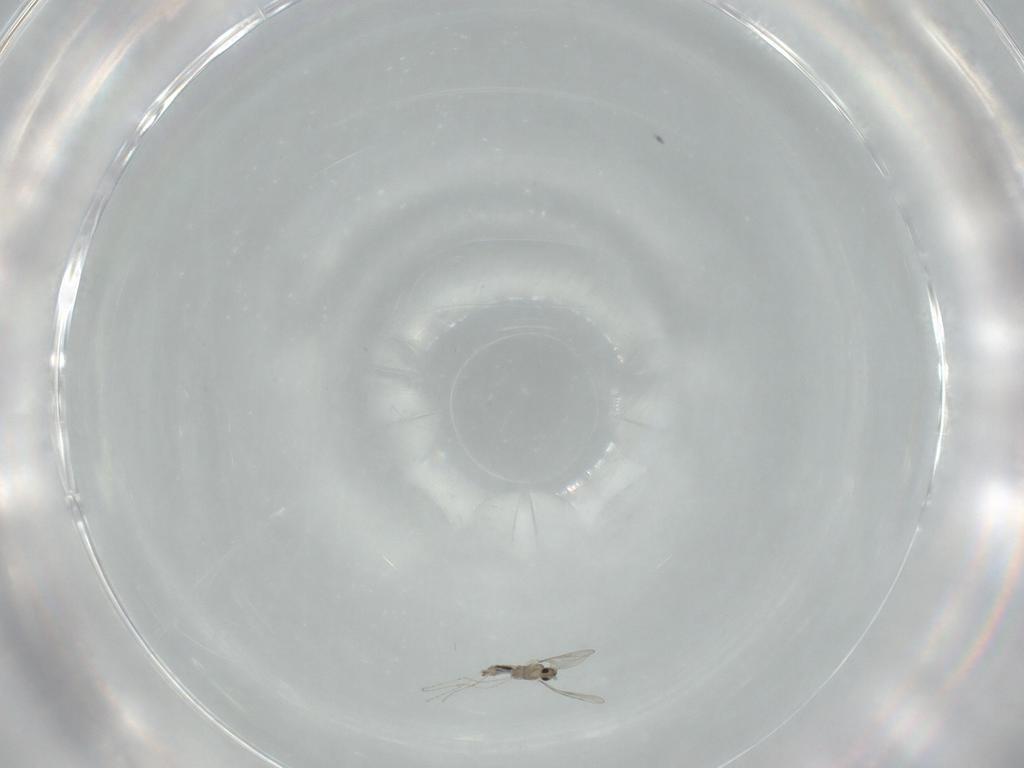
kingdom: Animalia
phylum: Arthropoda
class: Insecta
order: Diptera
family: Cecidomyiidae
